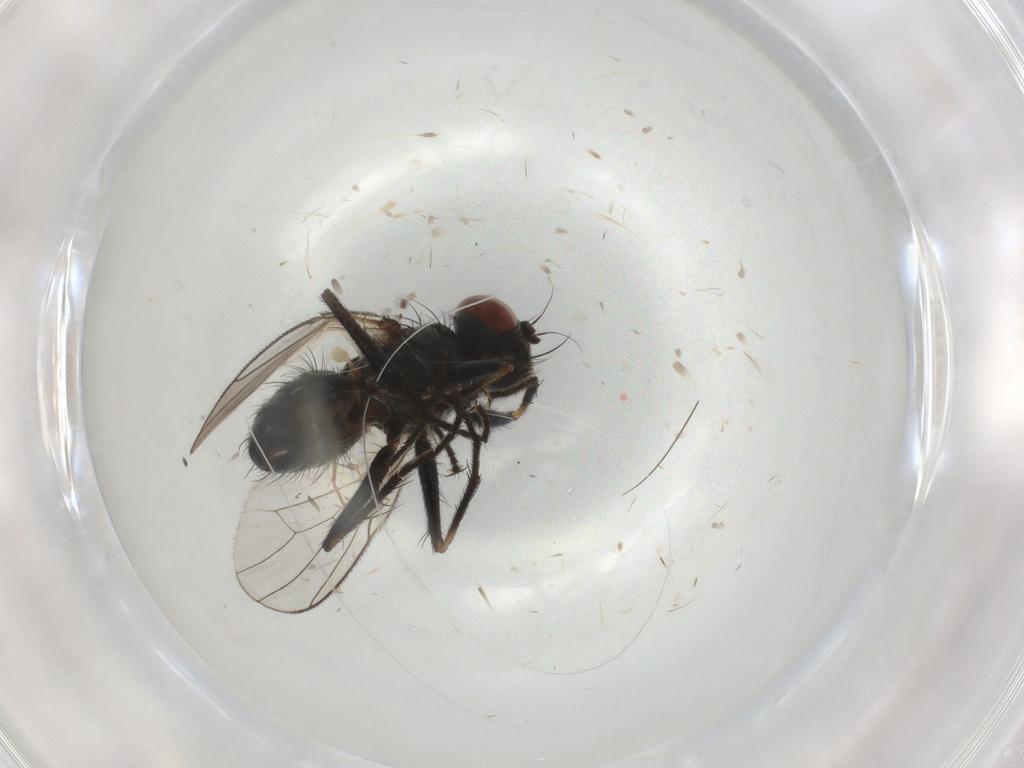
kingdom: Animalia
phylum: Arthropoda
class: Insecta
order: Diptera
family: Muscidae
